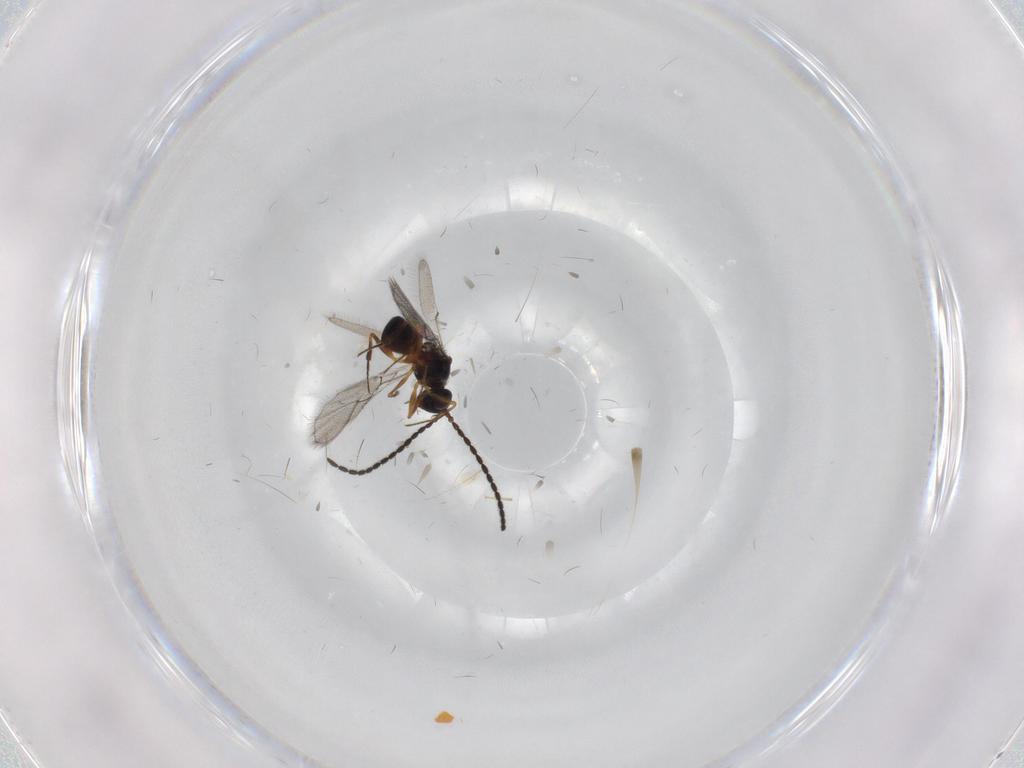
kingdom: Animalia
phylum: Arthropoda
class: Insecta
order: Hymenoptera
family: Figitidae
